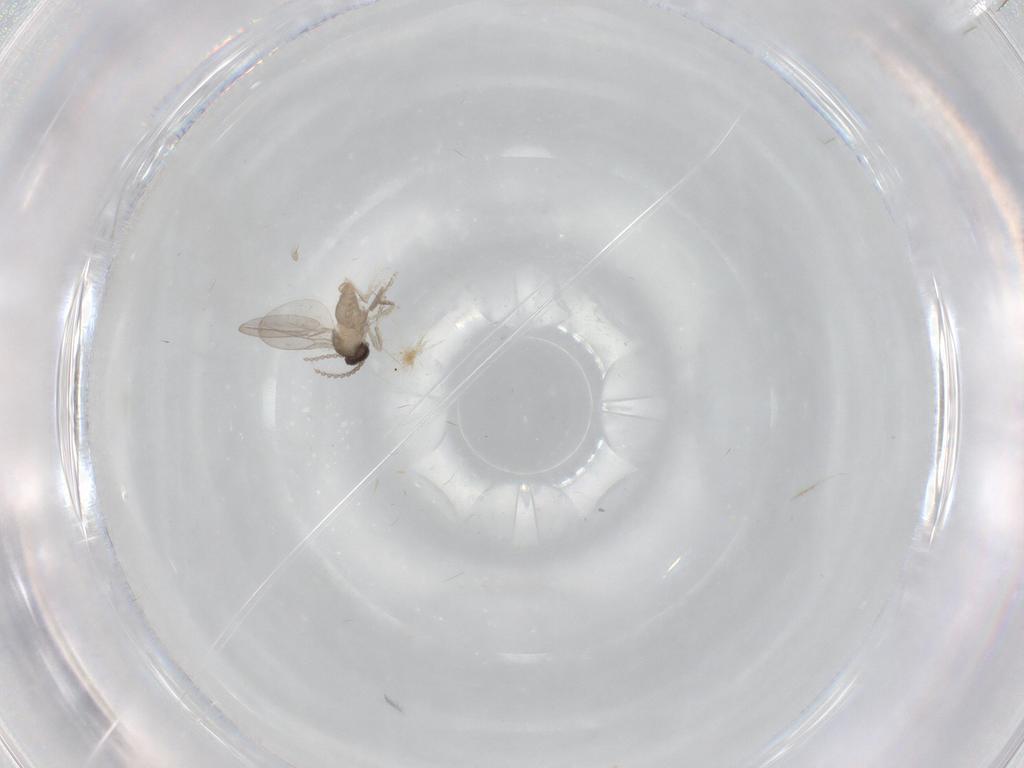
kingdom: Animalia
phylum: Arthropoda
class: Insecta
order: Diptera
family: Cecidomyiidae
